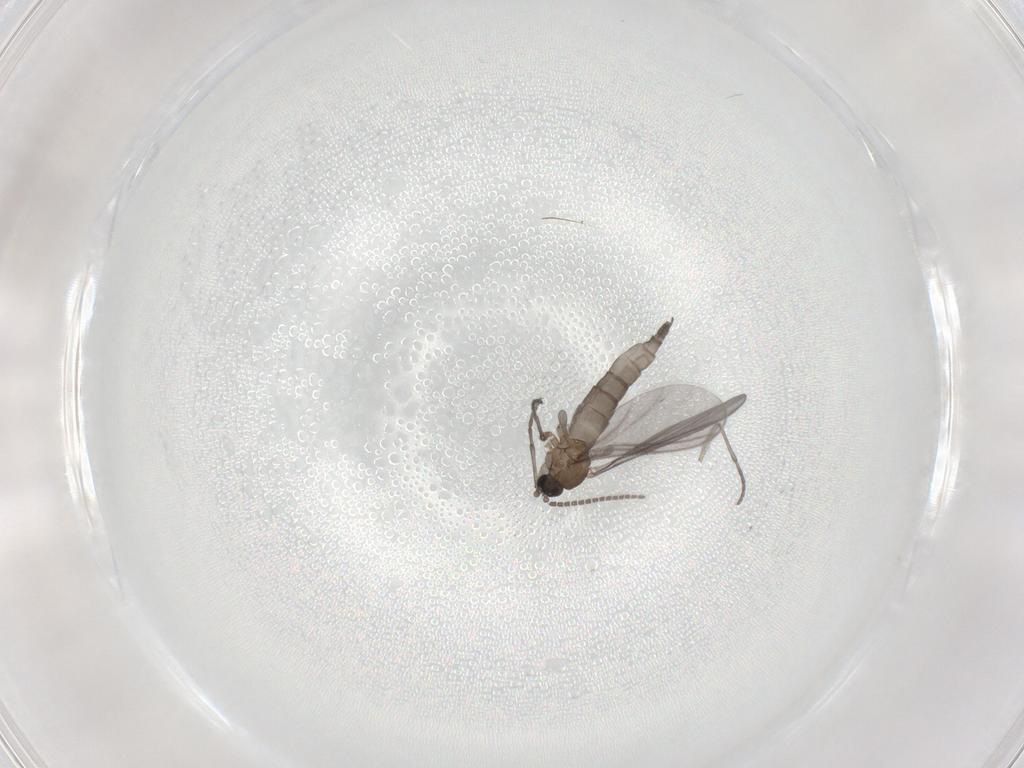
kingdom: Animalia
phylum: Arthropoda
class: Insecta
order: Diptera
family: Sciaridae
